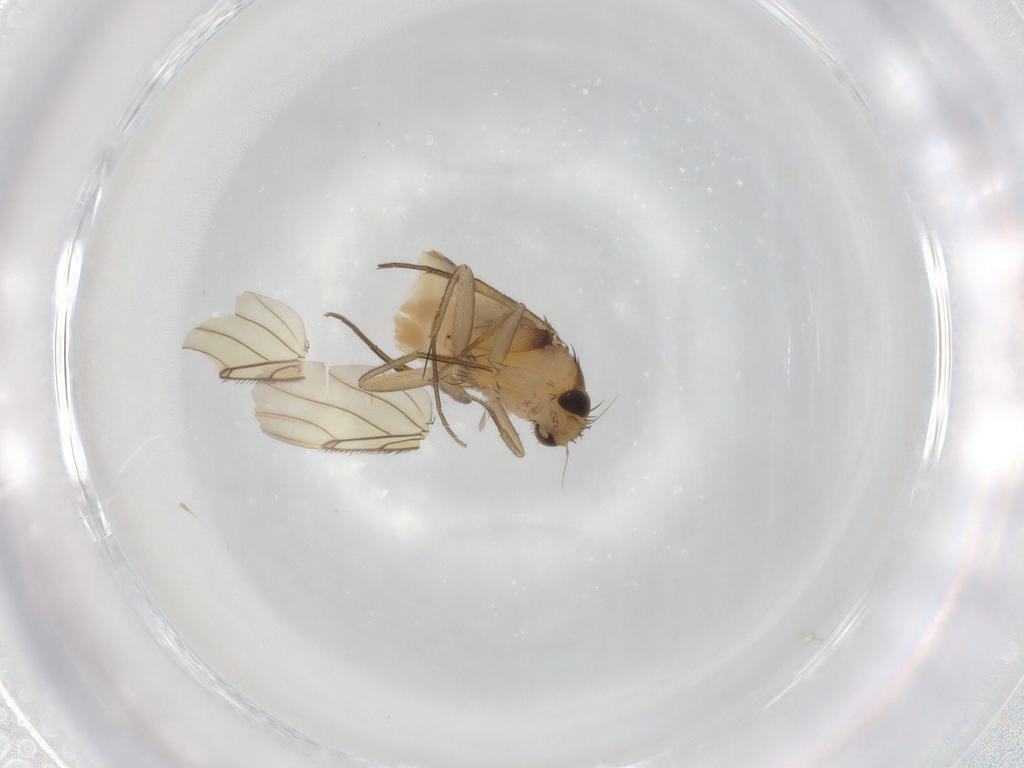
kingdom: Animalia
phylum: Arthropoda
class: Insecta
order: Diptera
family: Phoridae
